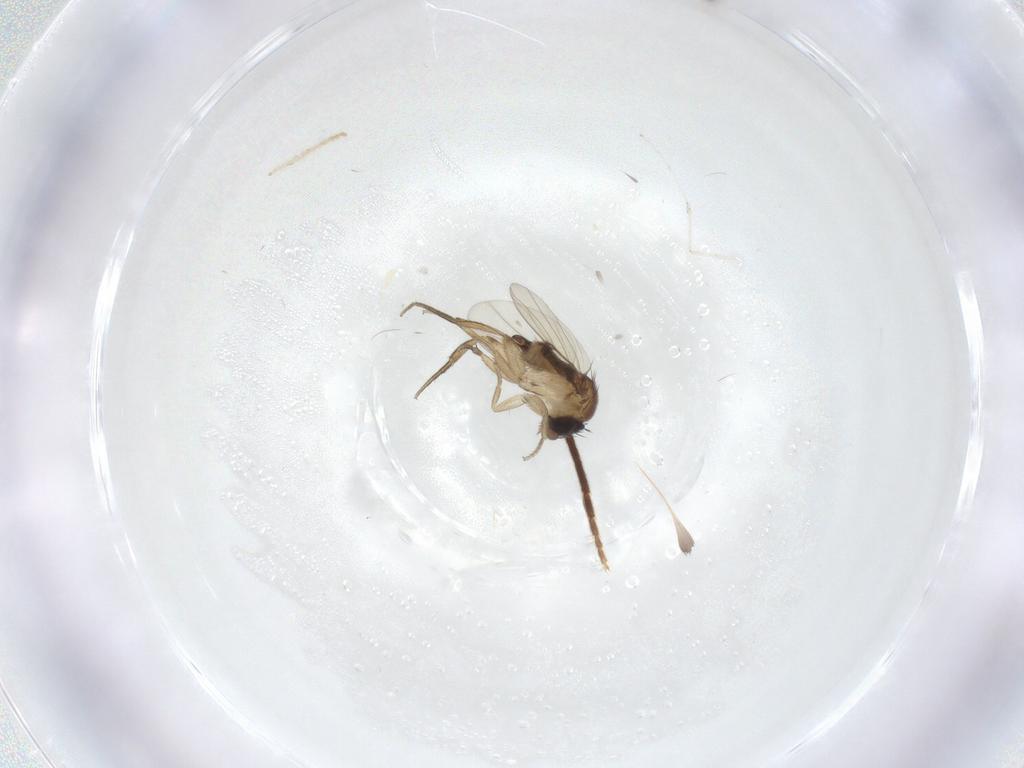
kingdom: Animalia
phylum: Arthropoda
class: Insecta
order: Diptera
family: Cecidomyiidae
